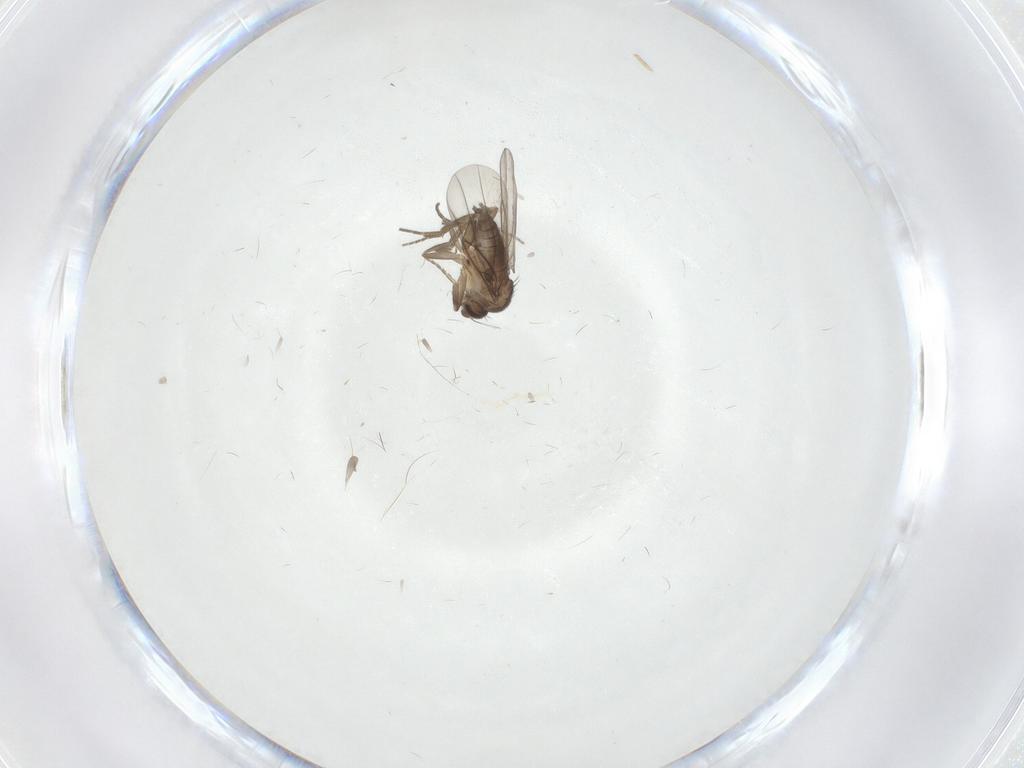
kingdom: Animalia
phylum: Arthropoda
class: Insecta
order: Diptera
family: Chironomidae
